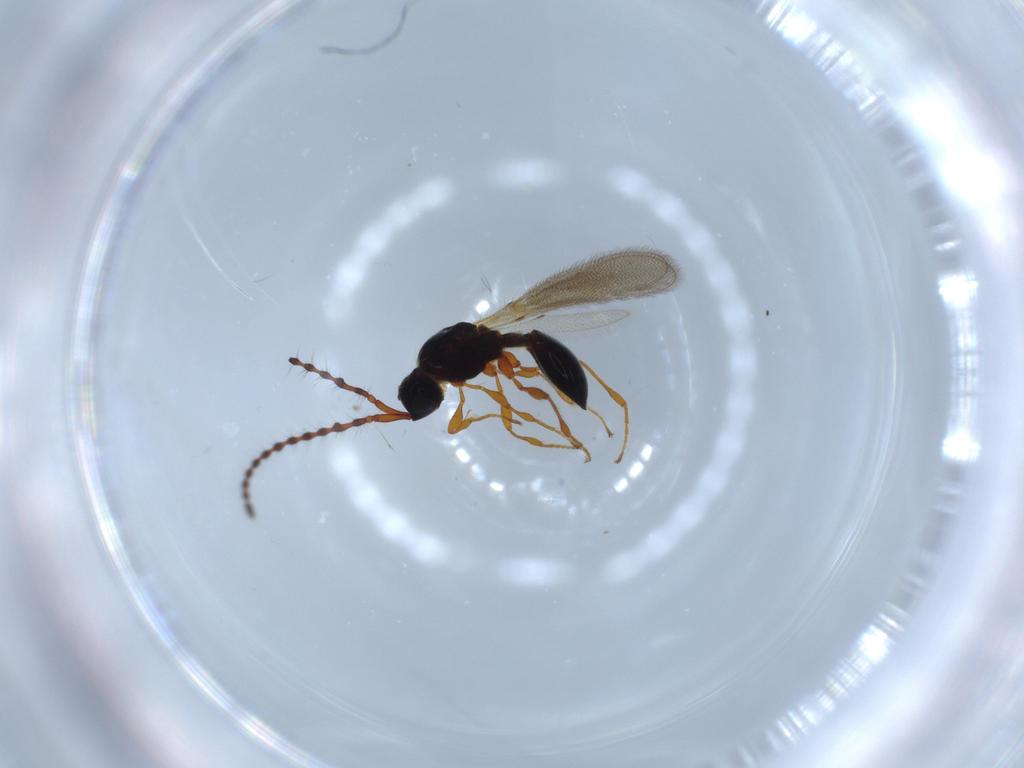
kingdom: Animalia
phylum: Arthropoda
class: Insecta
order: Hymenoptera
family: Diapriidae
